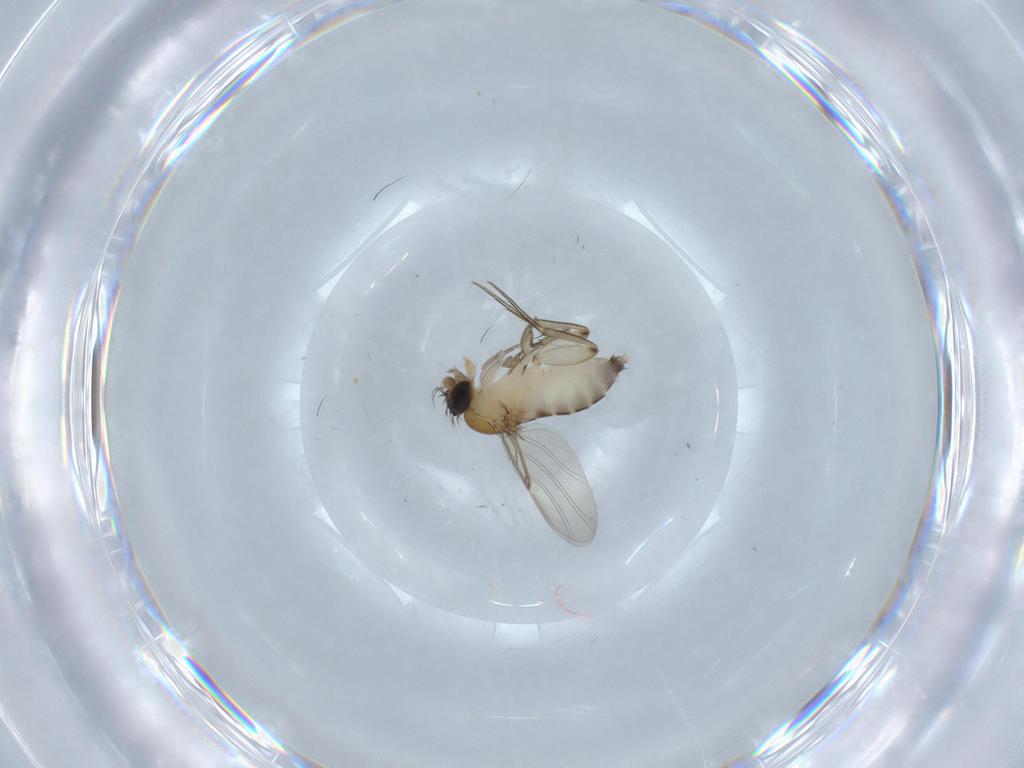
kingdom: Animalia
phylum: Arthropoda
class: Insecta
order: Diptera
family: Phoridae
